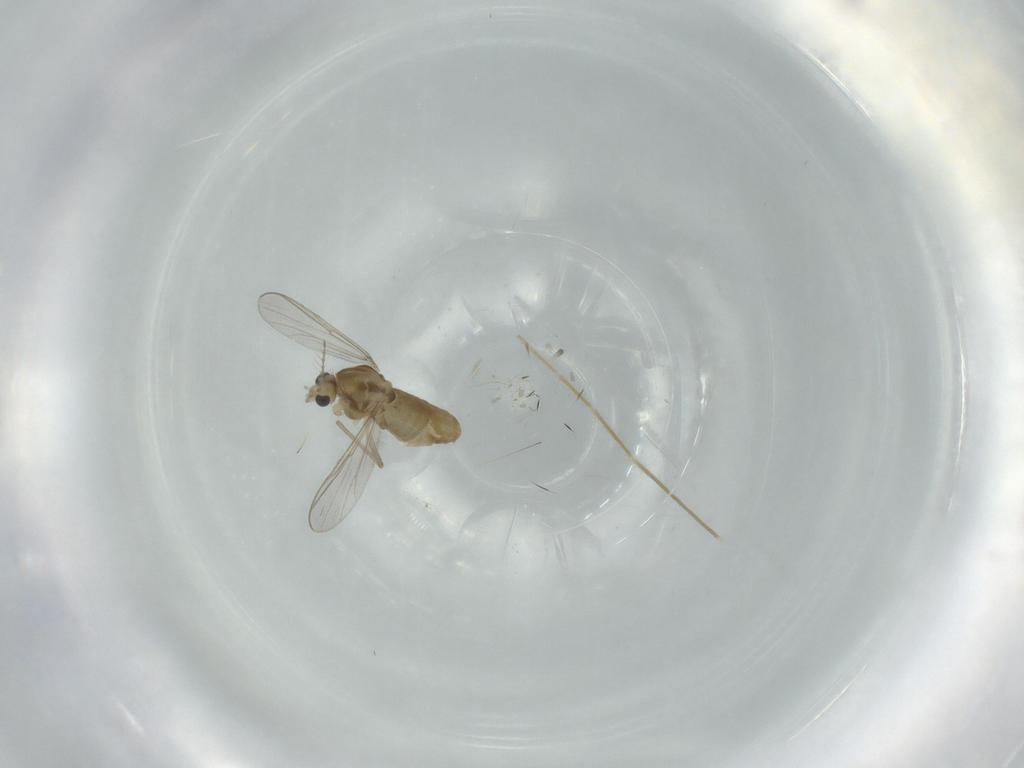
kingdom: Animalia
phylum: Arthropoda
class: Insecta
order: Diptera
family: Chironomidae
